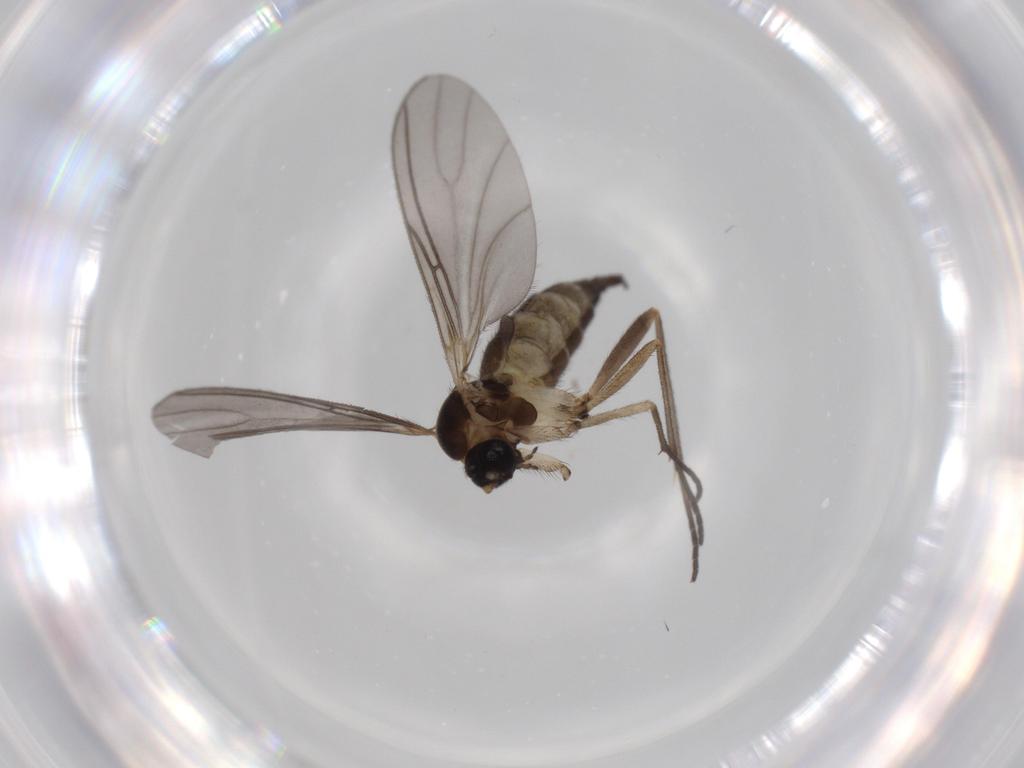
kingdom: Animalia
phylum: Arthropoda
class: Insecta
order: Diptera
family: Sciaridae
